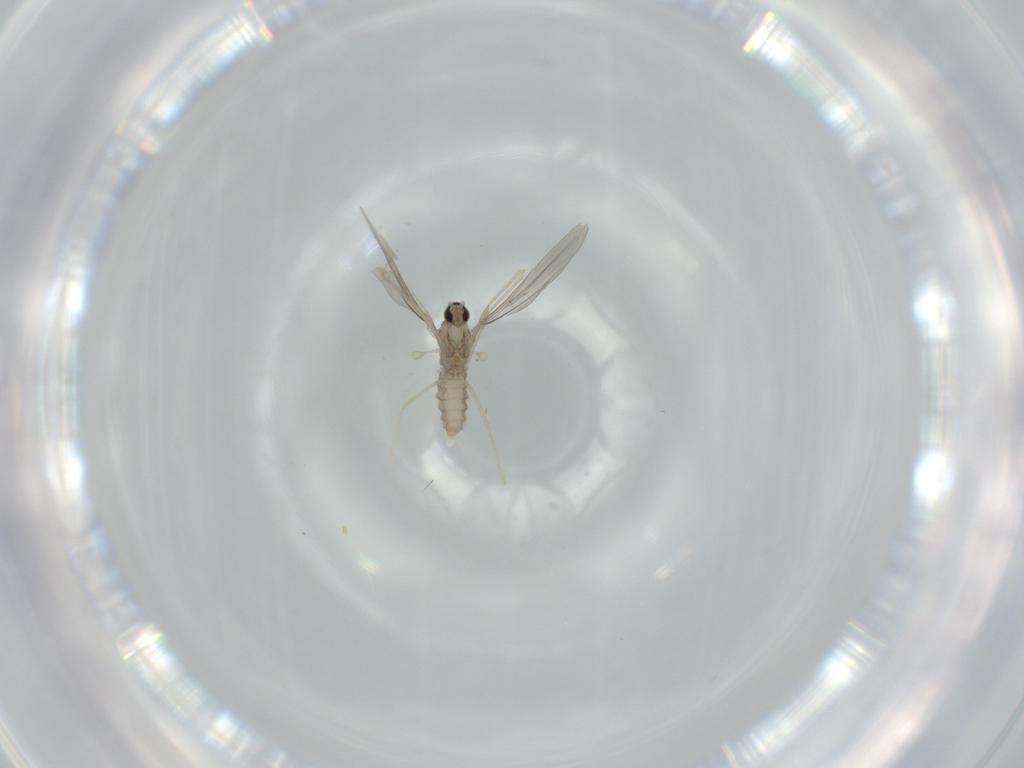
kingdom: Animalia
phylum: Arthropoda
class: Insecta
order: Diptera
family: Cecidomyiidae
